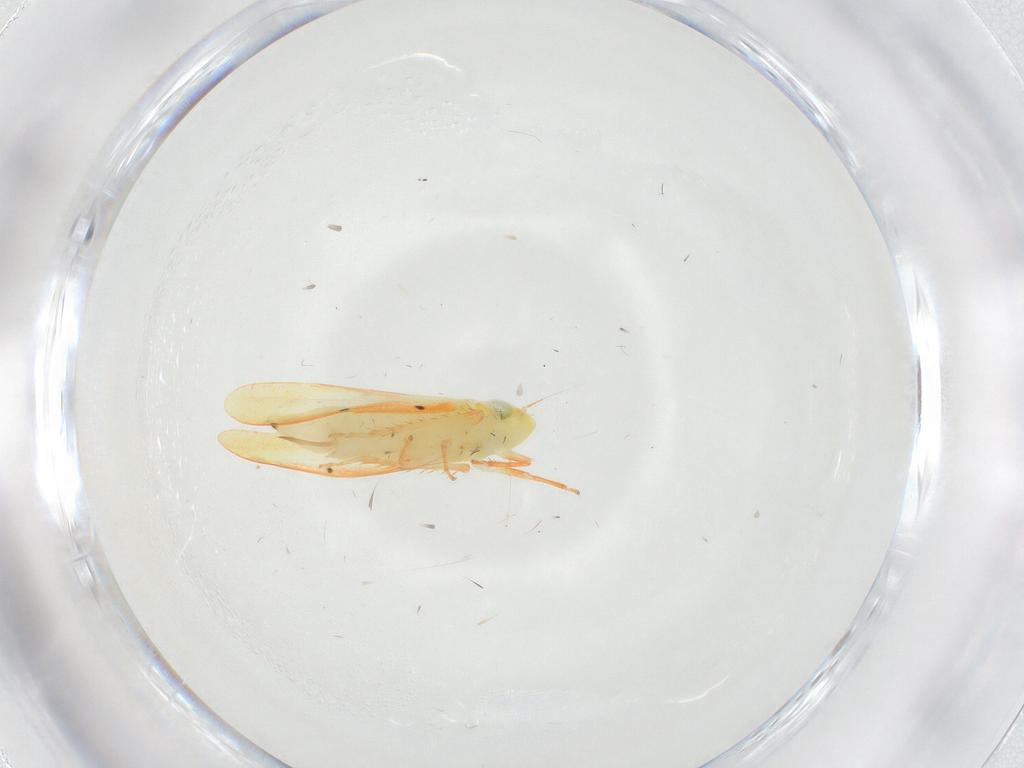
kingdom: Animalia
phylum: Arthropoda
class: Insecta
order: Hemiptera
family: Cicadellidae
